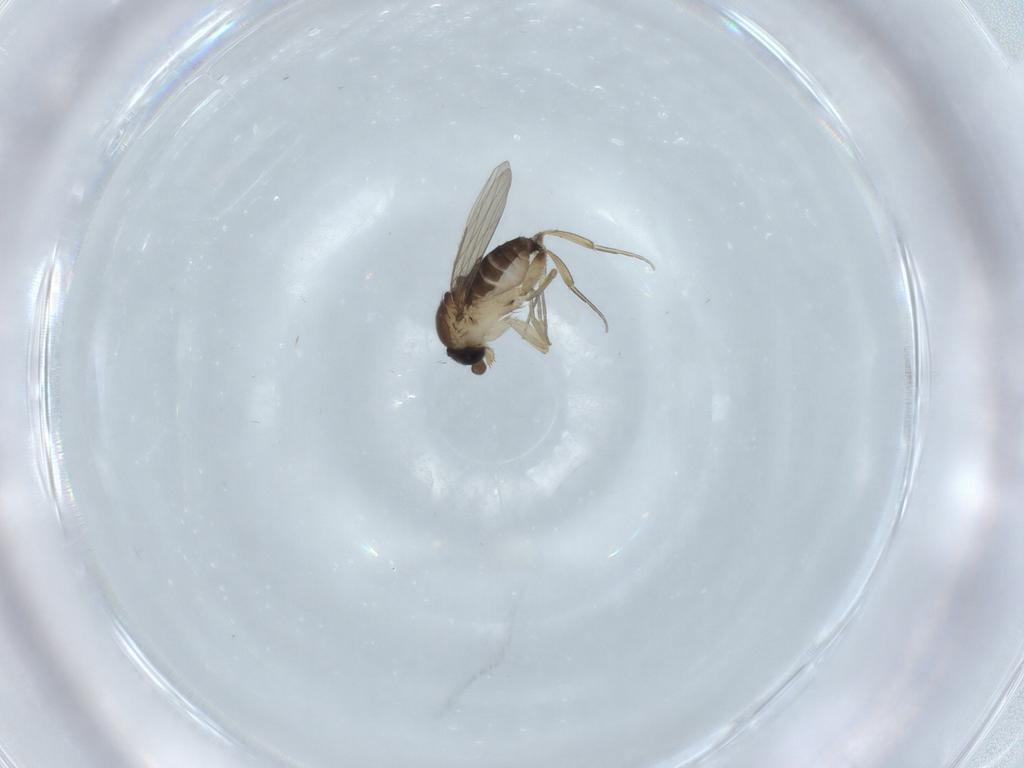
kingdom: Animalia
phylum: Arthropoda
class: Insecta
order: Diptera
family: Phoridae
